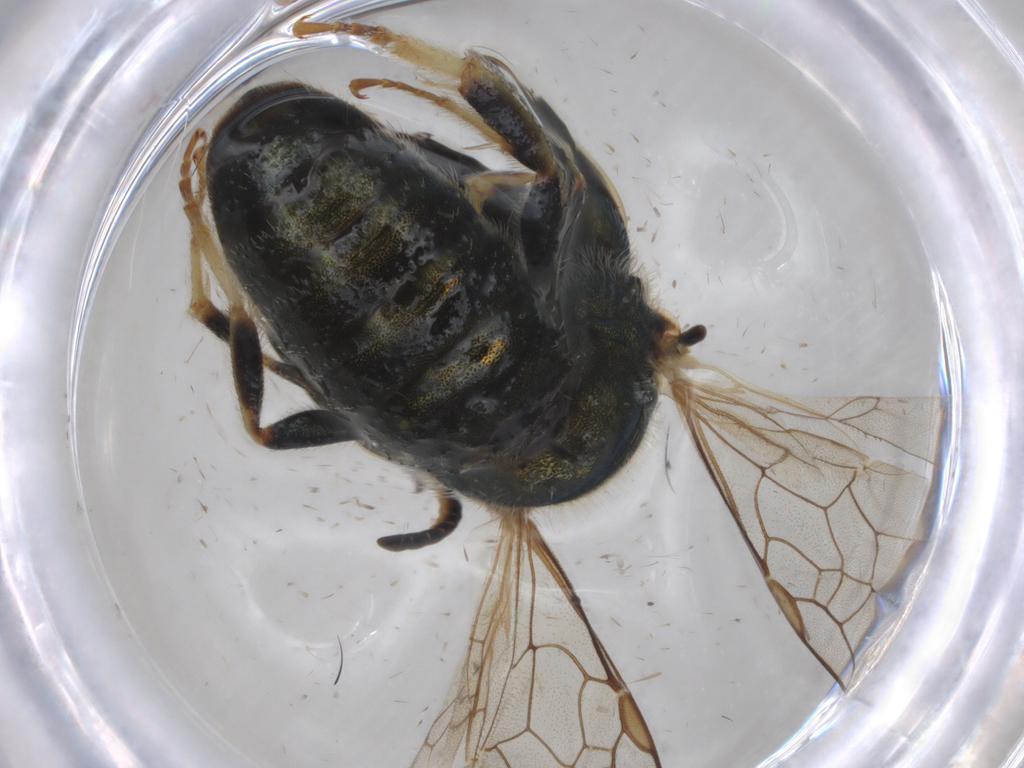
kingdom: Animalia
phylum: Arthropoda
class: Insecta
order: Hymenoptera
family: Halictidae
